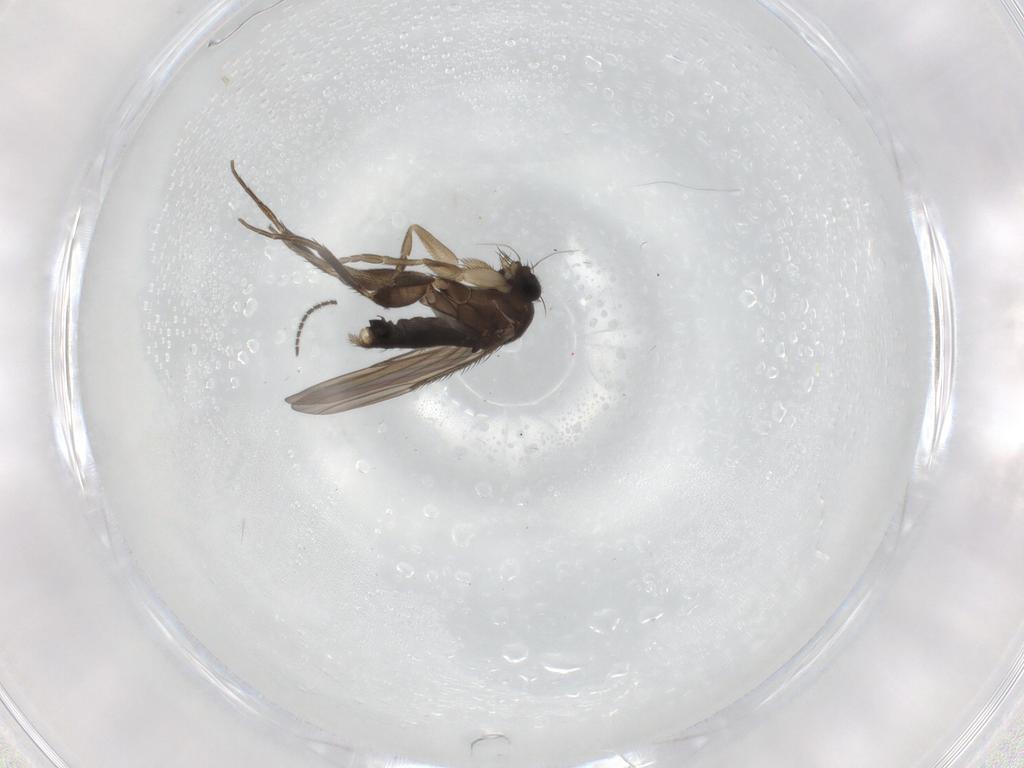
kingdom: Animalia
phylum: Arthropoda
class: Insecta
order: Diptera
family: Phoridae
